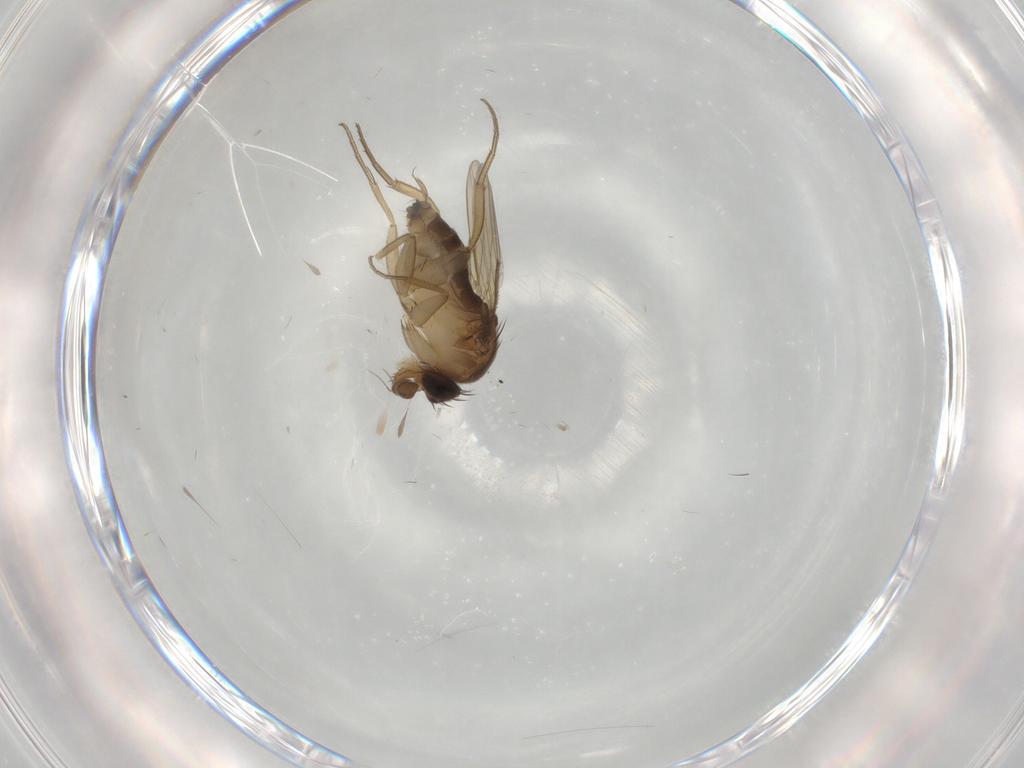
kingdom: Animalia
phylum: Arthropoda
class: Insecta
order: Diptera
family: Phoridae
